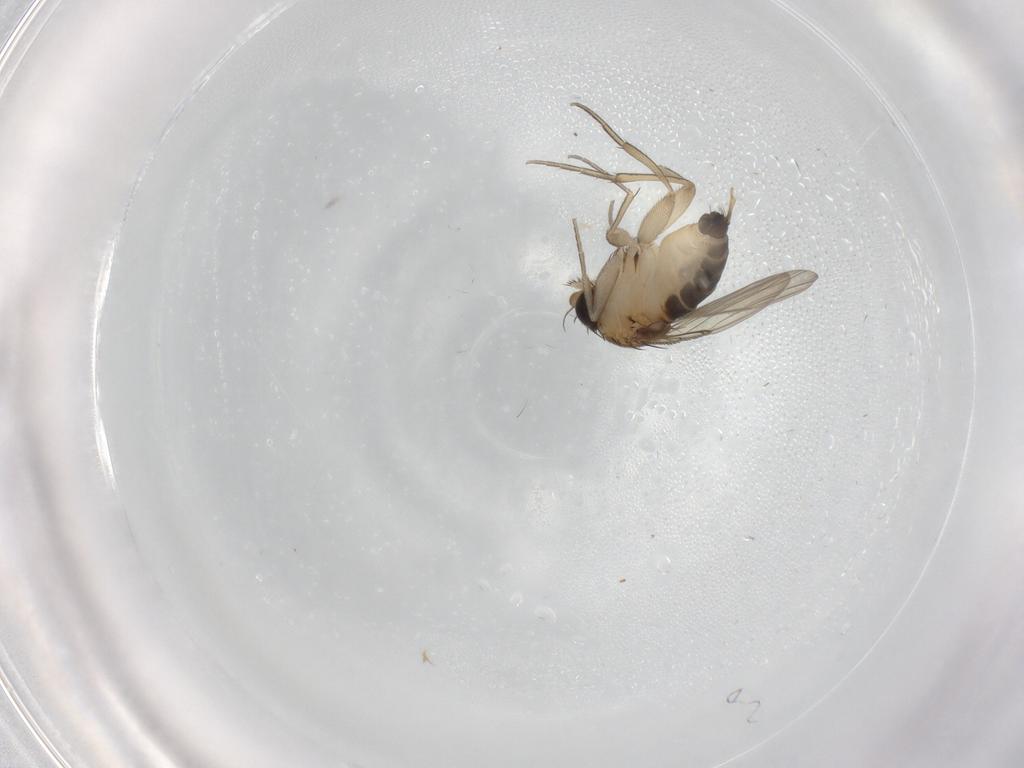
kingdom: Animalia
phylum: Arthropoda
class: Insecta
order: Diptera
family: Phoridae
